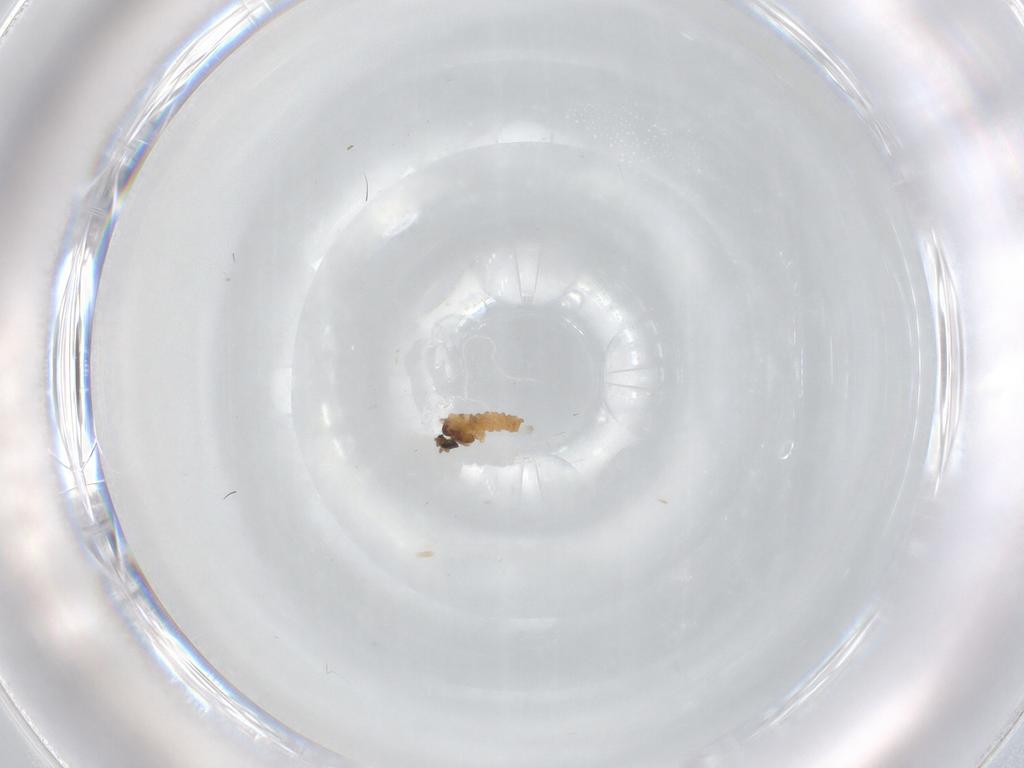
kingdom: Animalia
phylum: Arthropoda
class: Insecta
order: Diptera
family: Cecidomyiidae
